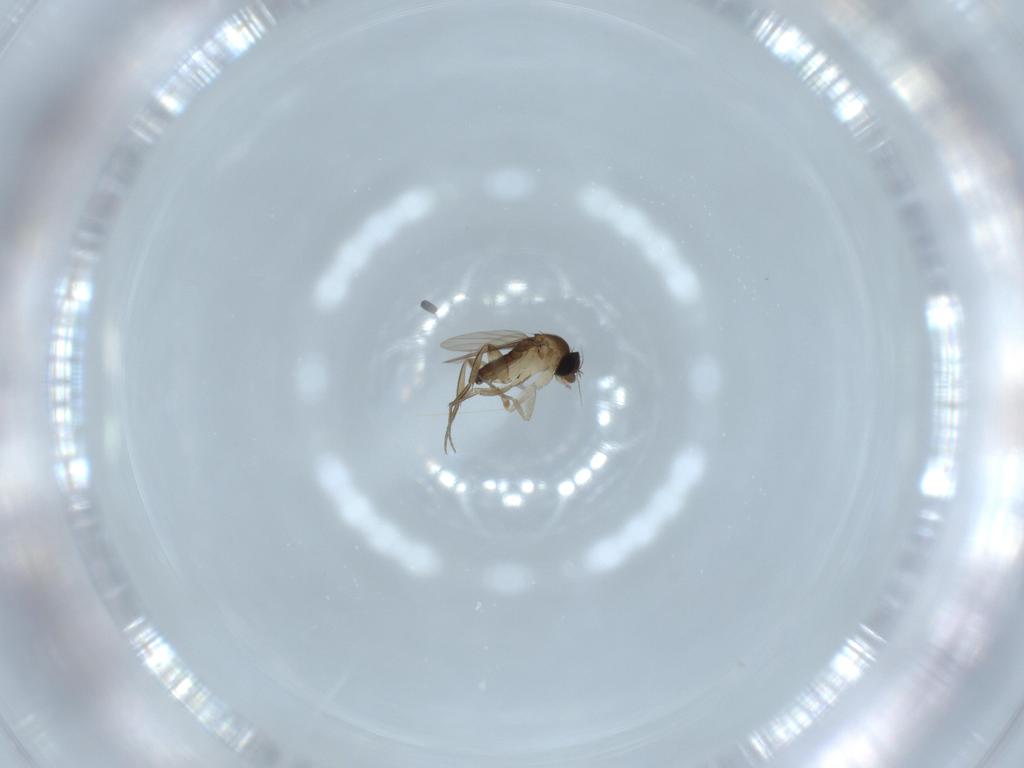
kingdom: Animalia
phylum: Arthropoda
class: Insecta
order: Diptera
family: Phoridae
